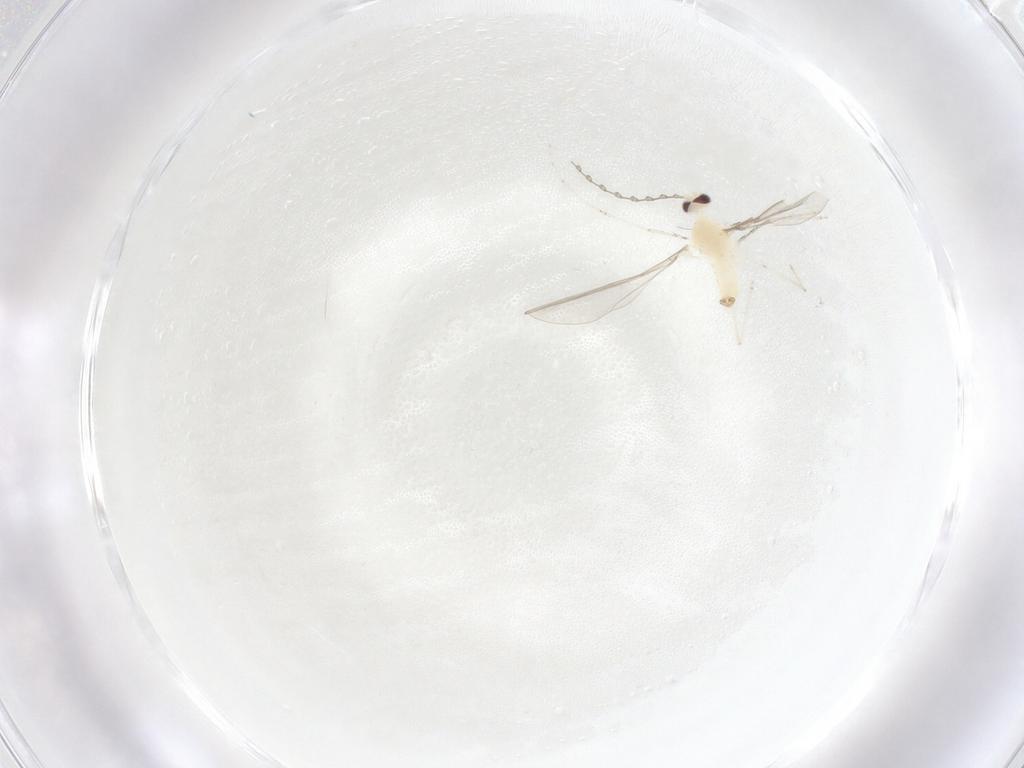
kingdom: Animalia
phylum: Arthropoda
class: Insecta
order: Diptera
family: Cecidomyiidae
